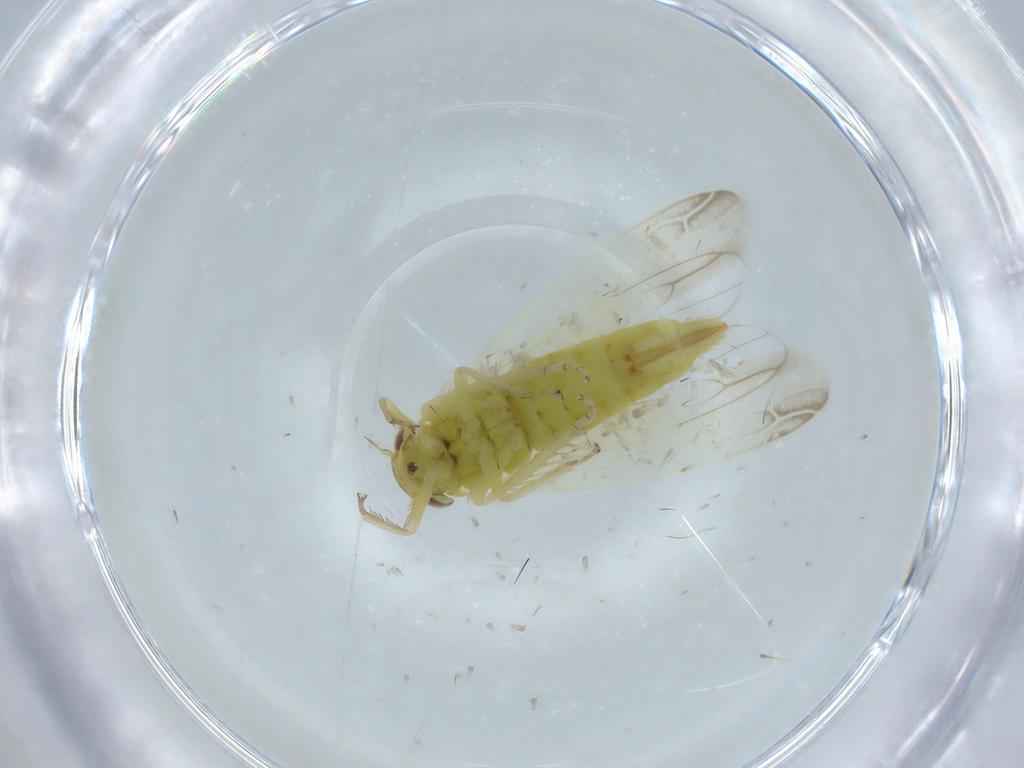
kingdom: Animalia
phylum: Arthropoda
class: Insecta
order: Hemiptera
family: Cicadellidae
